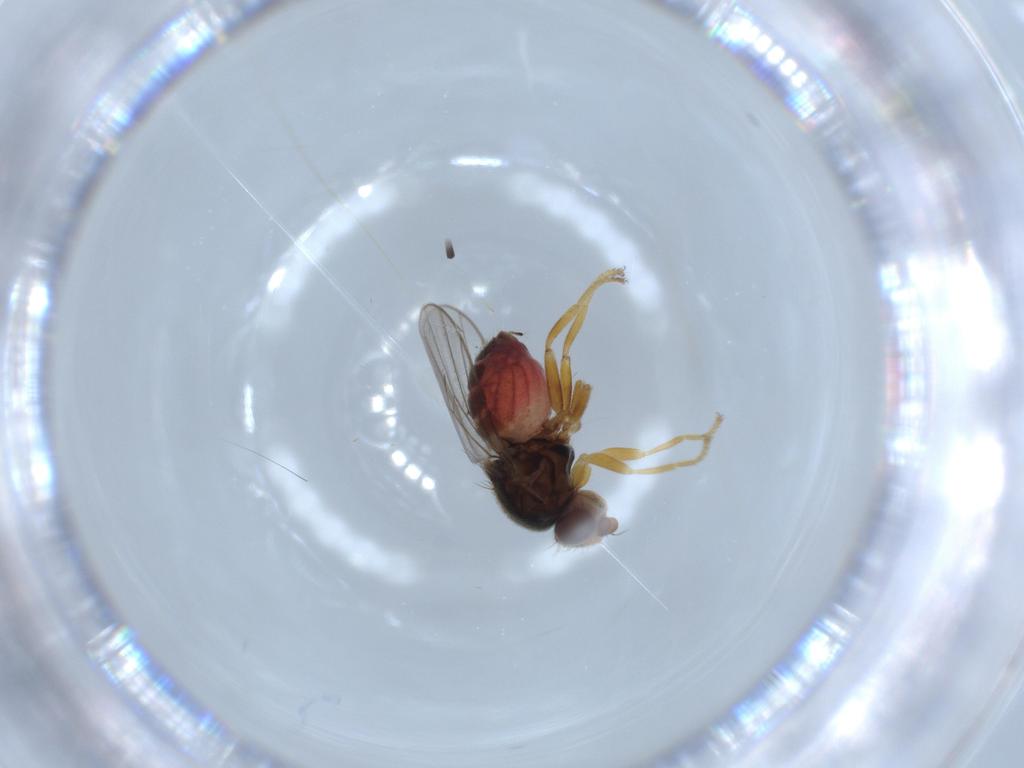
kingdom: Animalia
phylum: Arthropoda
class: Insecta
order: Diptera
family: Chloropidae
